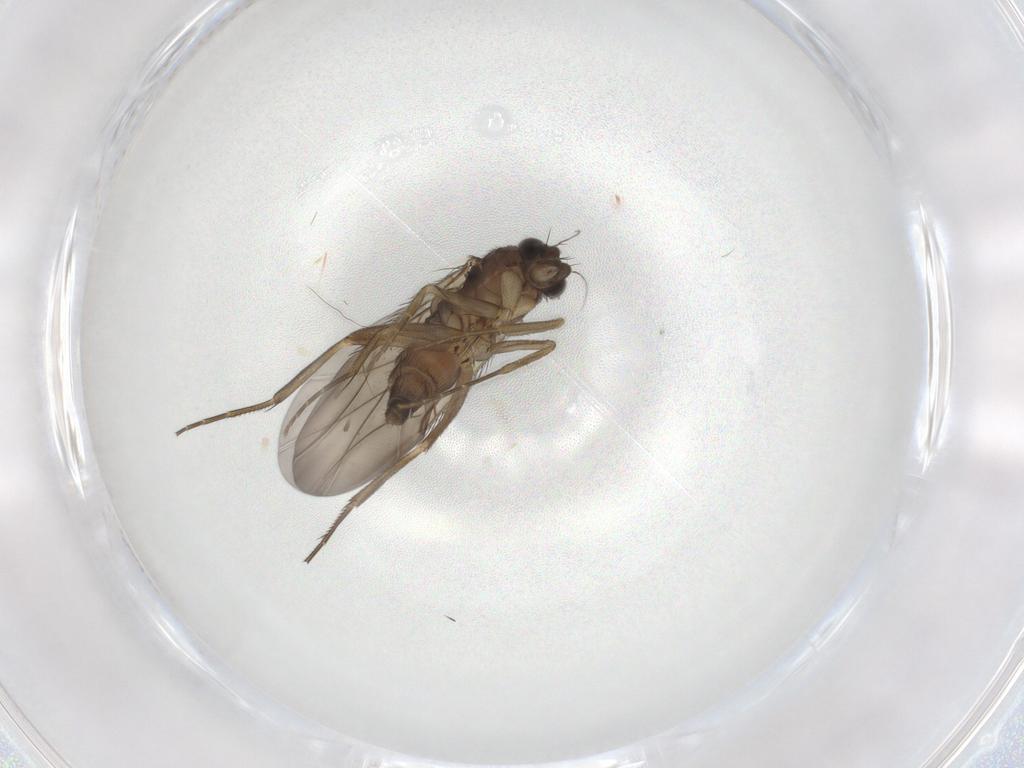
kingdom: Animalia
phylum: Arthropoda
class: Insecta
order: Diptera
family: Phoridae
